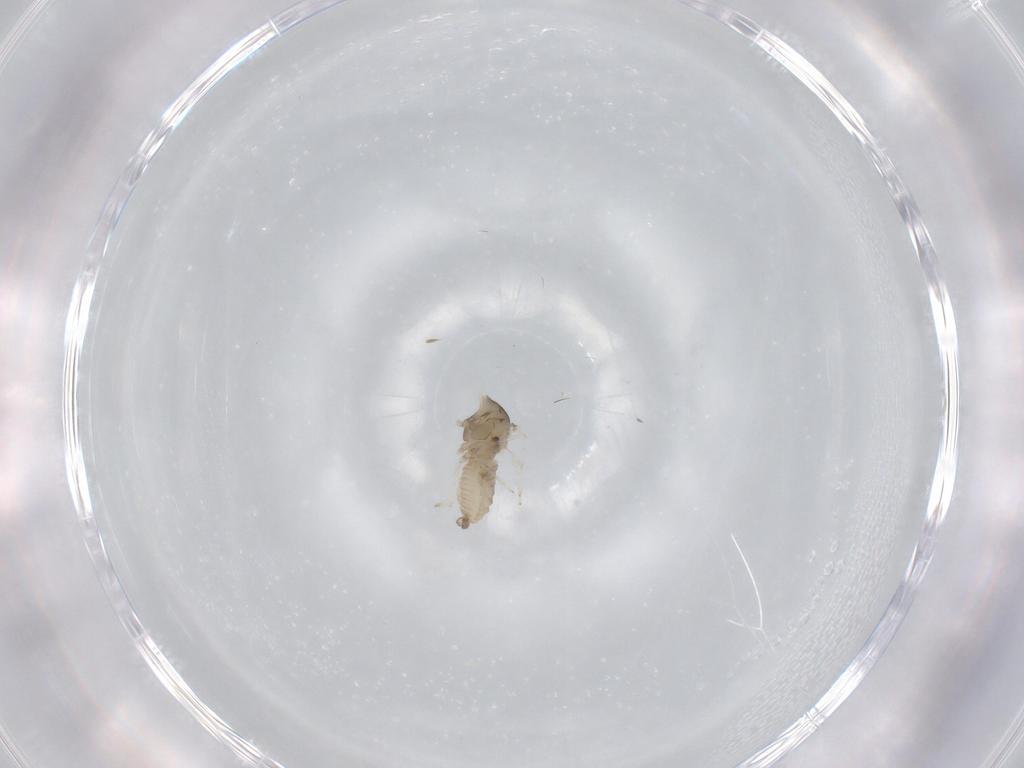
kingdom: Animalia
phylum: Arthropoda
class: Insecta
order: Diptera
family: Cecidomyiidae
